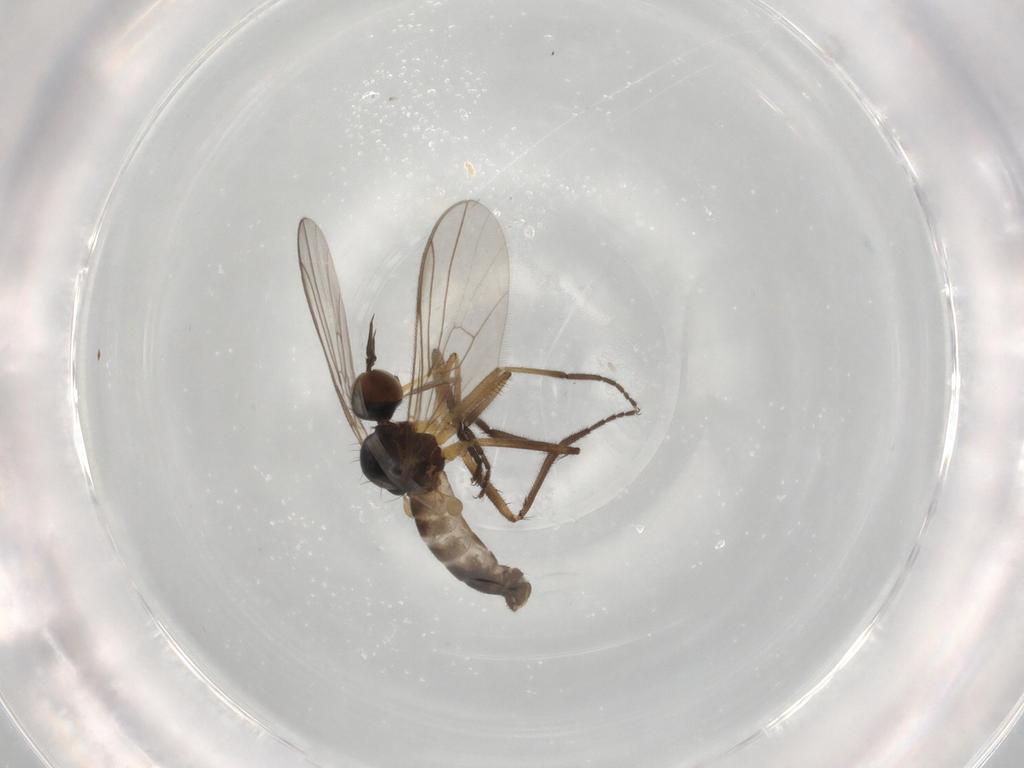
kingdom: Animalia
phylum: Arthropoda
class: Insecta
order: Diptera
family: Empididae
